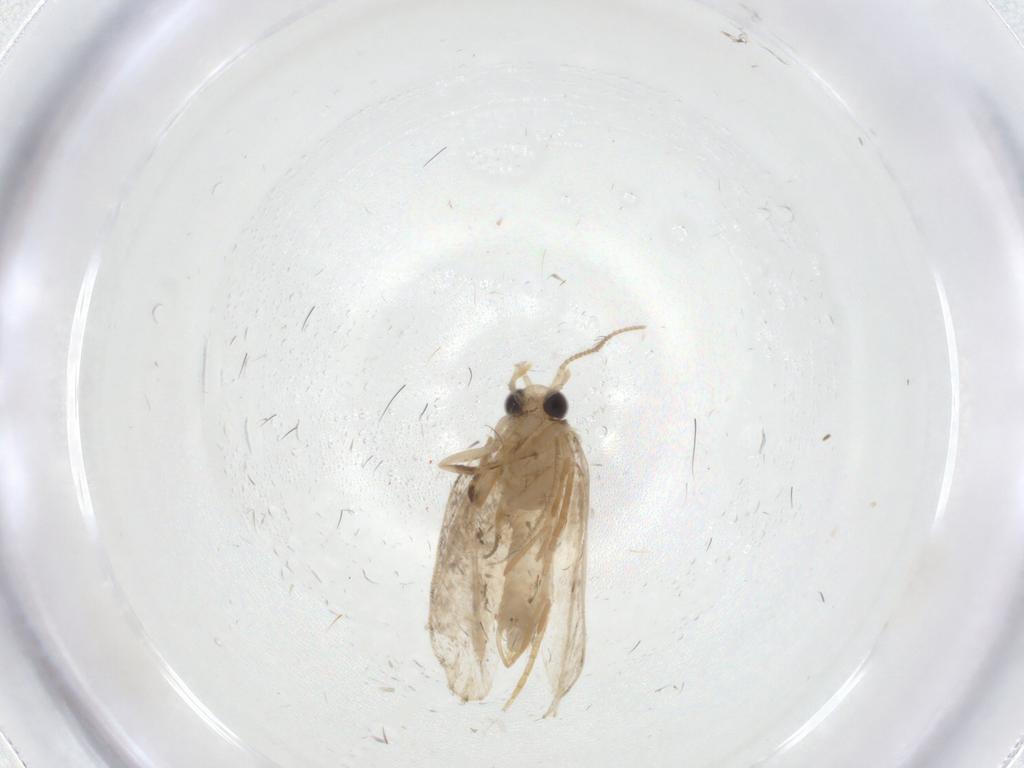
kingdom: Animalia
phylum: Arthropoda
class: Insecta
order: Lepidoptera
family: Psychidae
